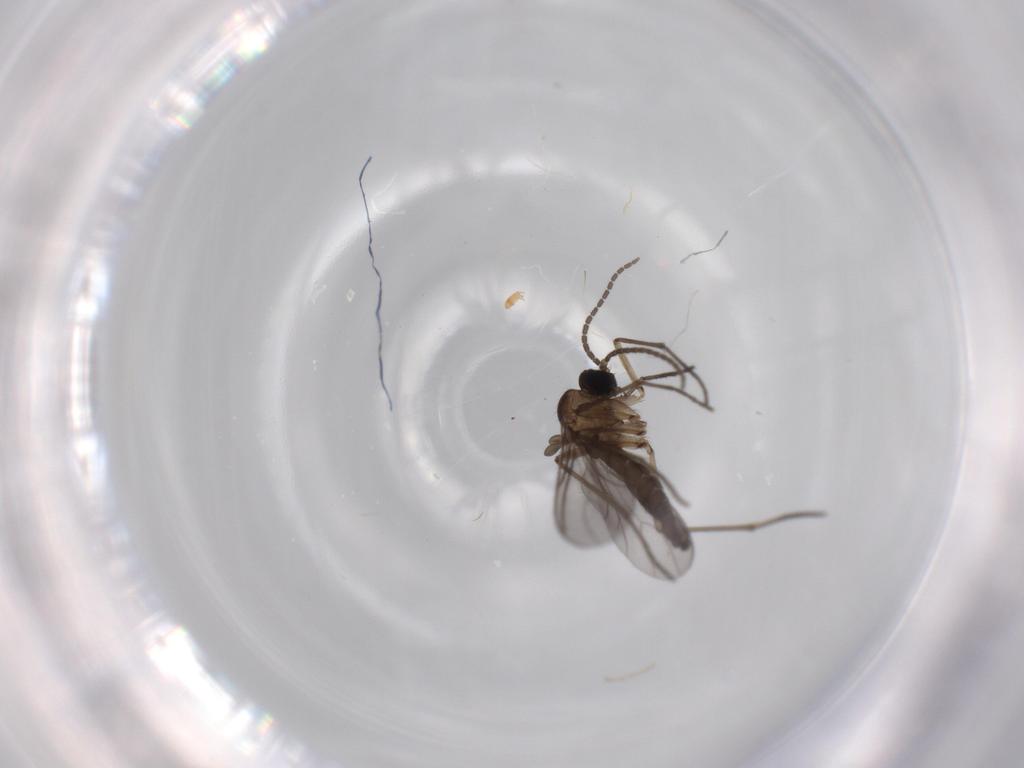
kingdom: Animalia
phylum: Arthropoda
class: Insecta
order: Diptera
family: Sciaridae
